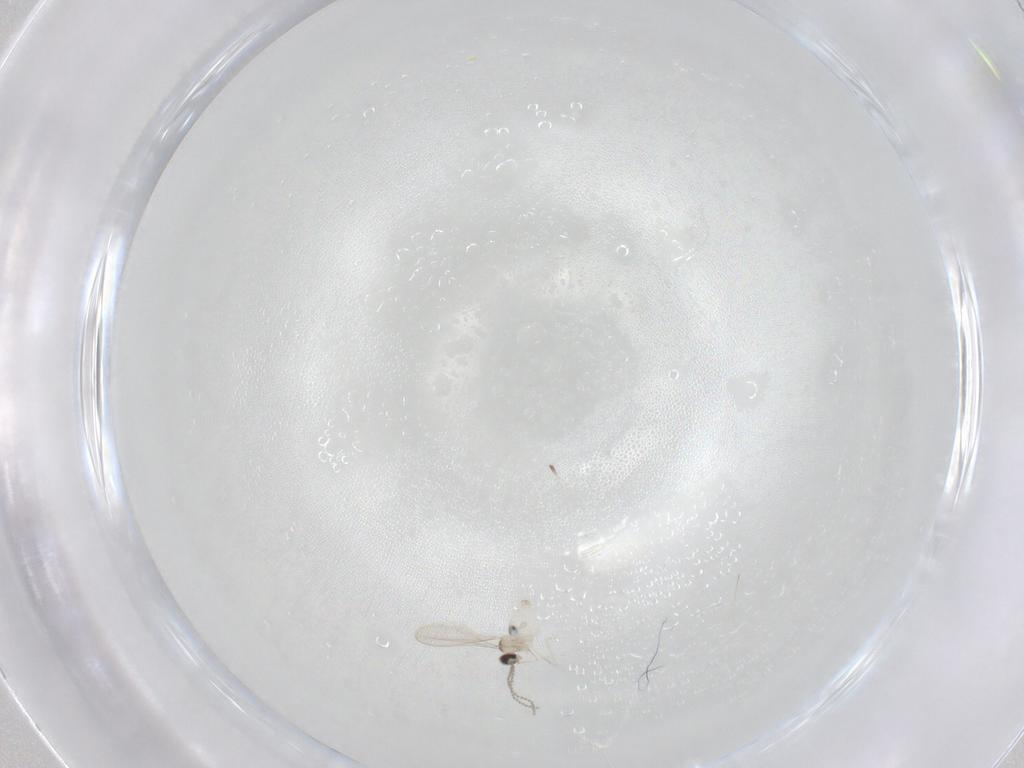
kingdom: Animalia
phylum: Arthropoda
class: Insecta
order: Diptera
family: Cecidomyiidae
